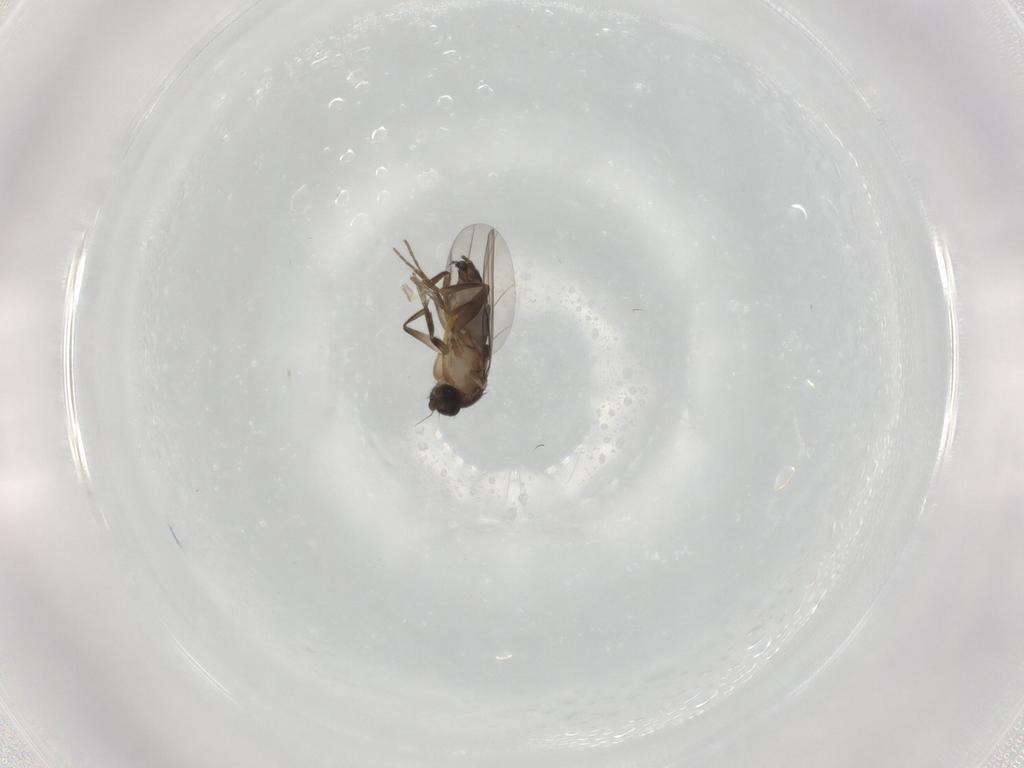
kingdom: Animalia
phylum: Arthropoda
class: Insecta
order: Diptera
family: Phoridae
